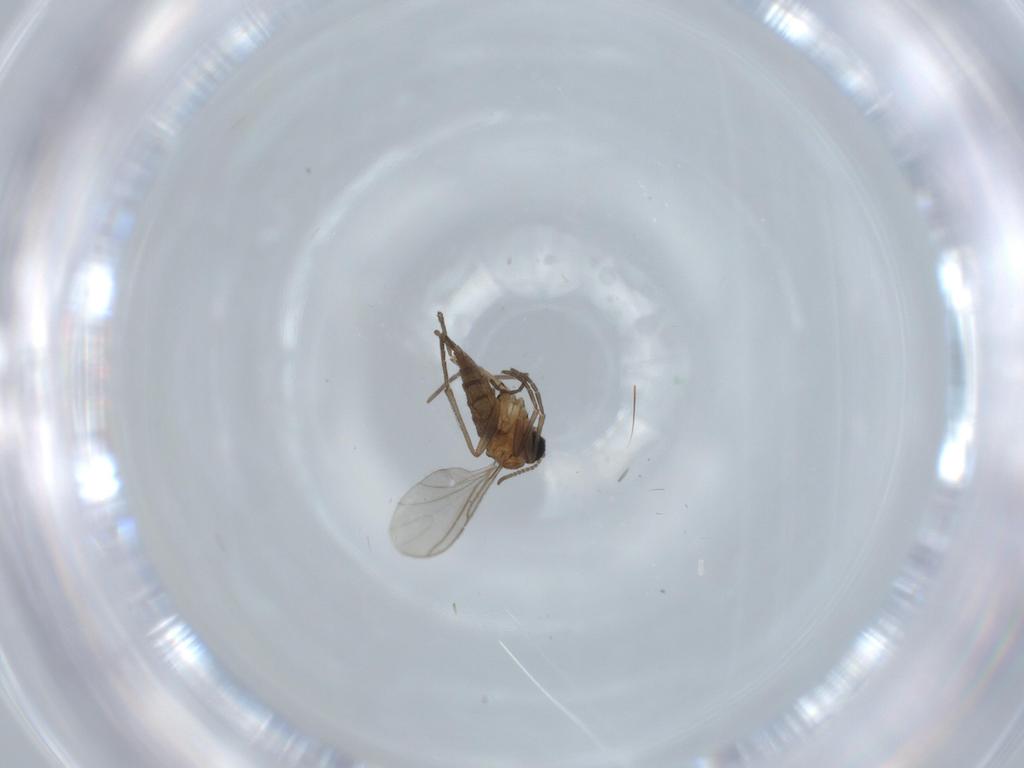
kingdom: Animalia
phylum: Arthropoda
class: Insecta
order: Diptera
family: Sciaridae
